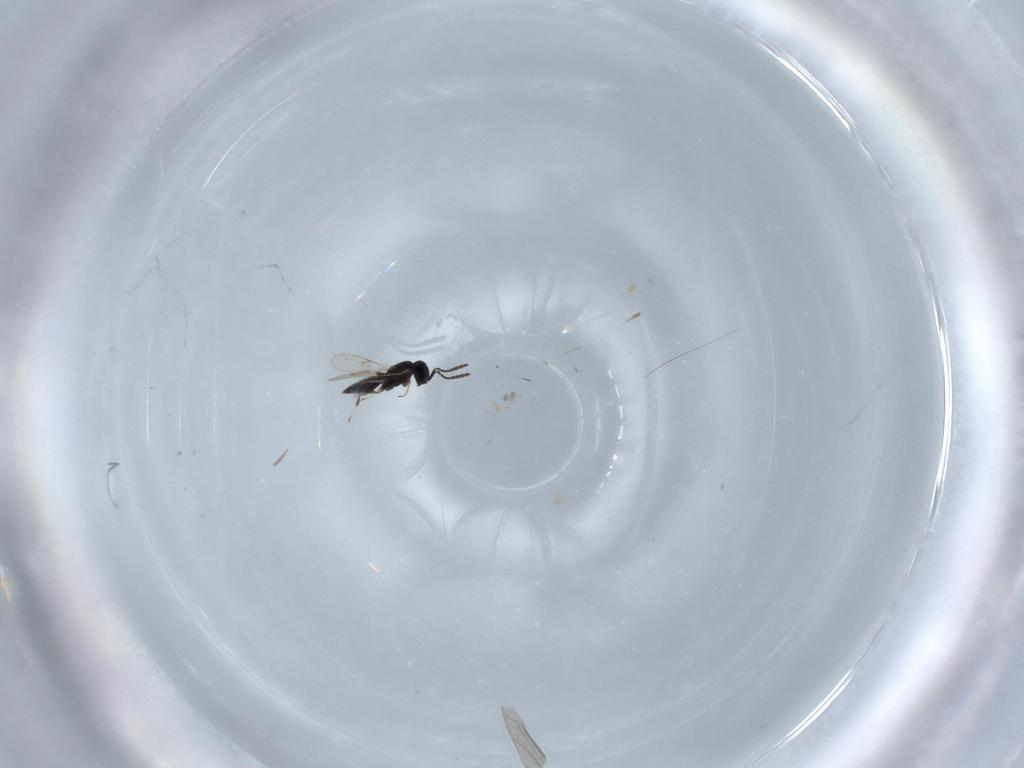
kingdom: Animalia
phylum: Arthropoda
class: Insecta
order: Hymenoptera
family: Scelionidae
